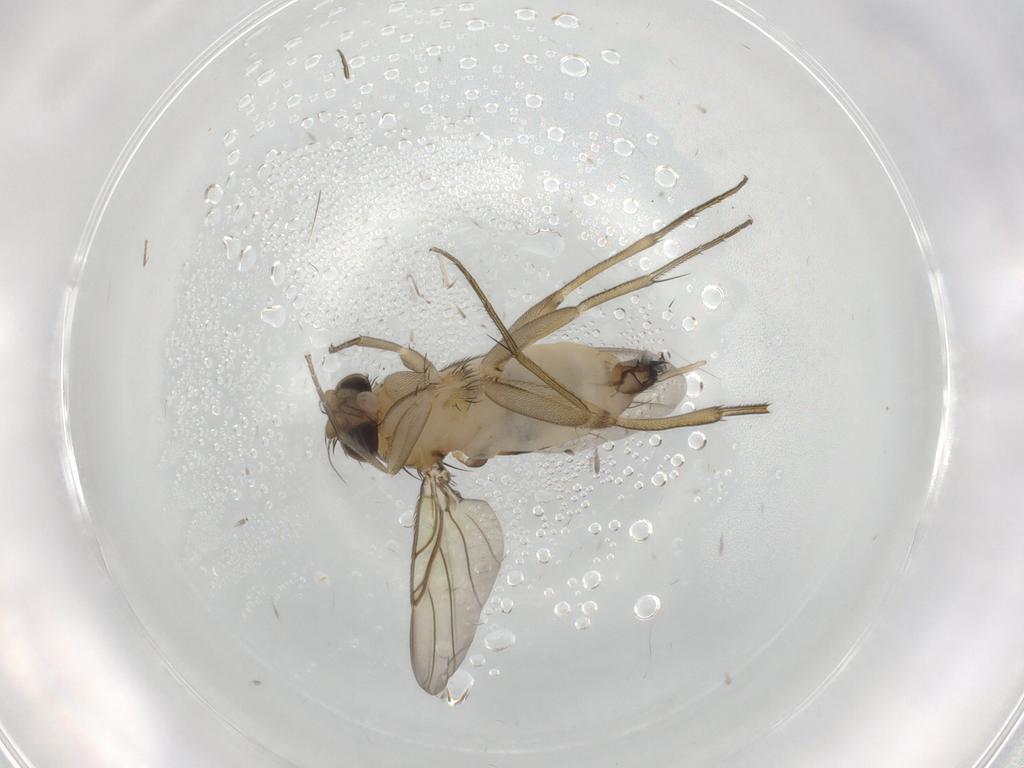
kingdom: Animalia
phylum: Arthropoda
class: Insecta
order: Diptera
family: Phoridae
